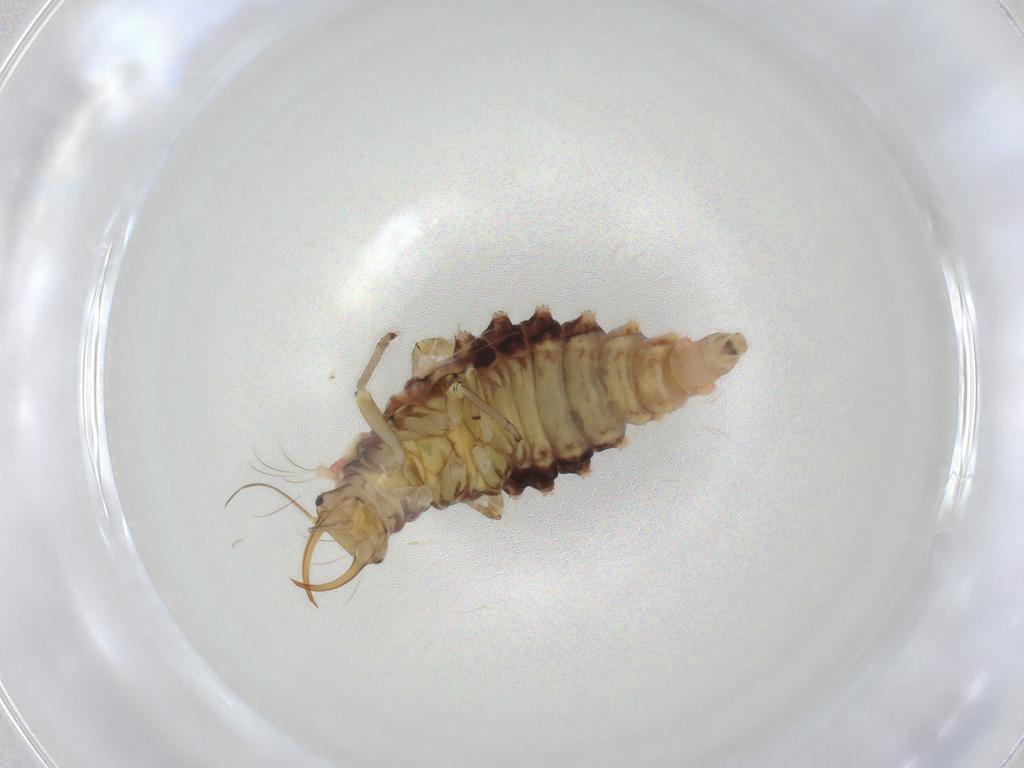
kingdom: Animalia
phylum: Arthropoda
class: Insecta
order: Neuroptera
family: Chrysopidae
